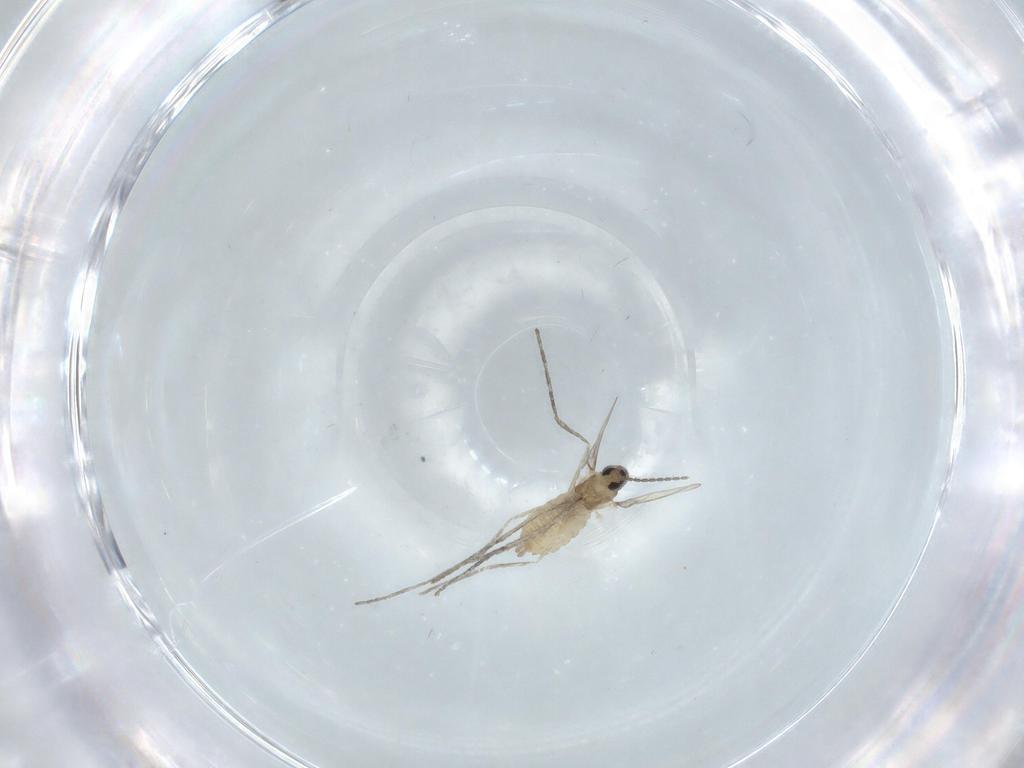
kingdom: Animalia
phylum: Arthropoda
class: Insecta
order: Diptera
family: Cecidomyiidae
